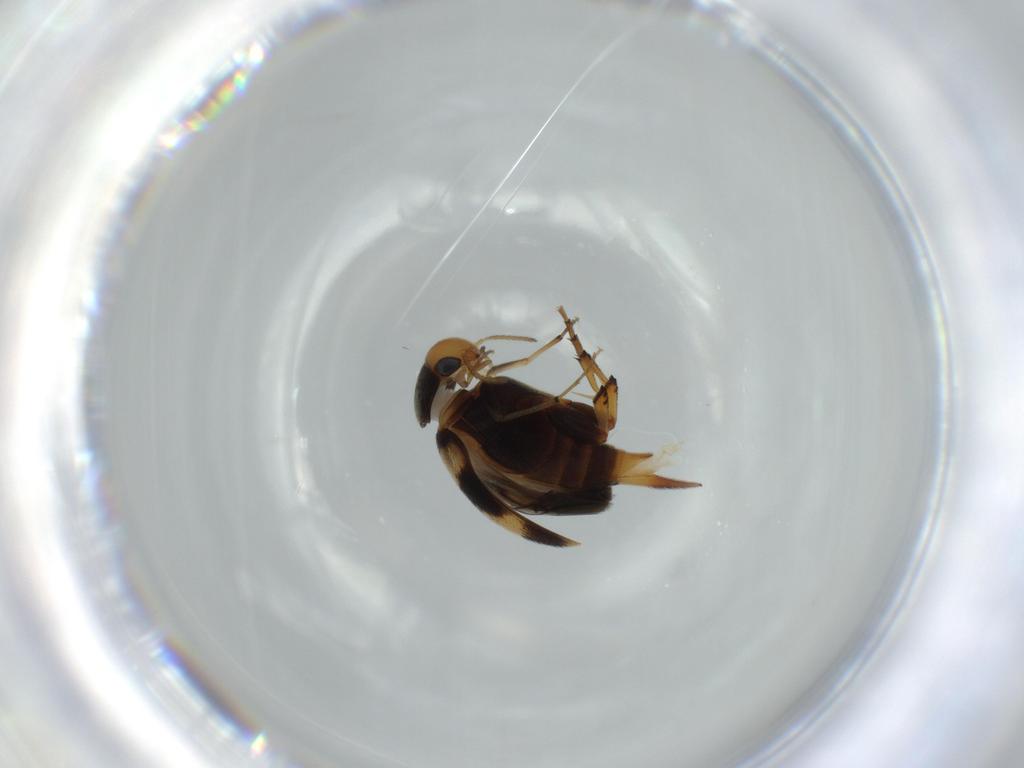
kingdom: Animalia
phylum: Arthropoda
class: Insecta
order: Coleoptera
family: Mordellidae
